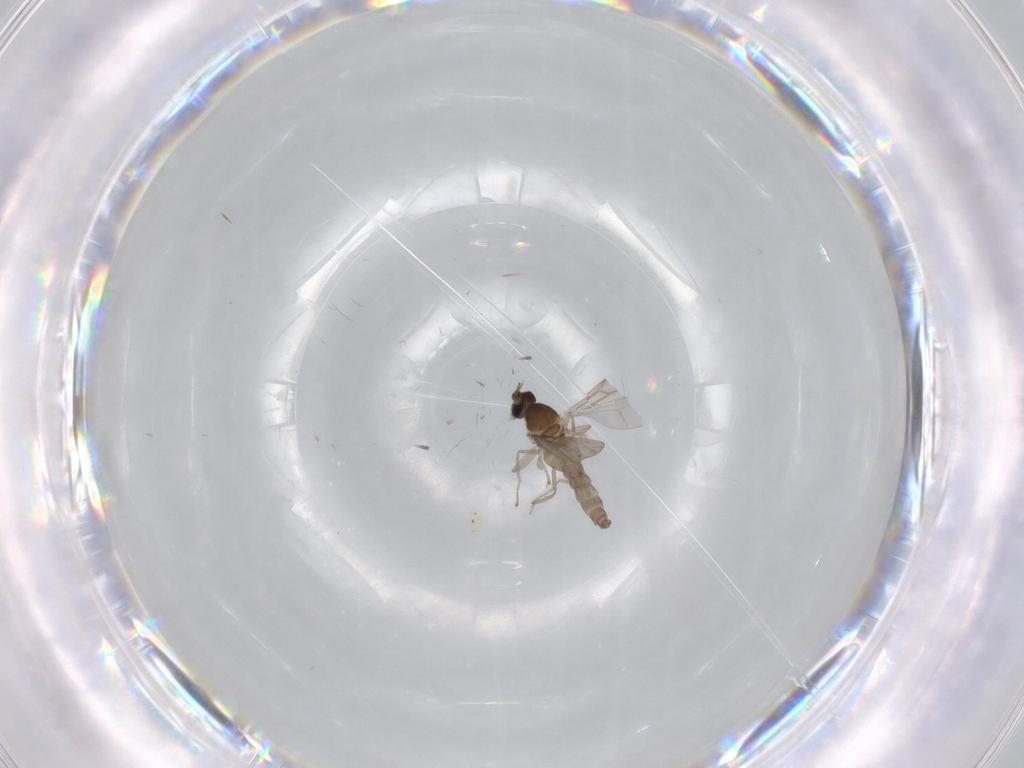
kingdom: Animalia
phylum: Arthropoda
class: Insecta
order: Diptera
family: Cecidomyiidae
